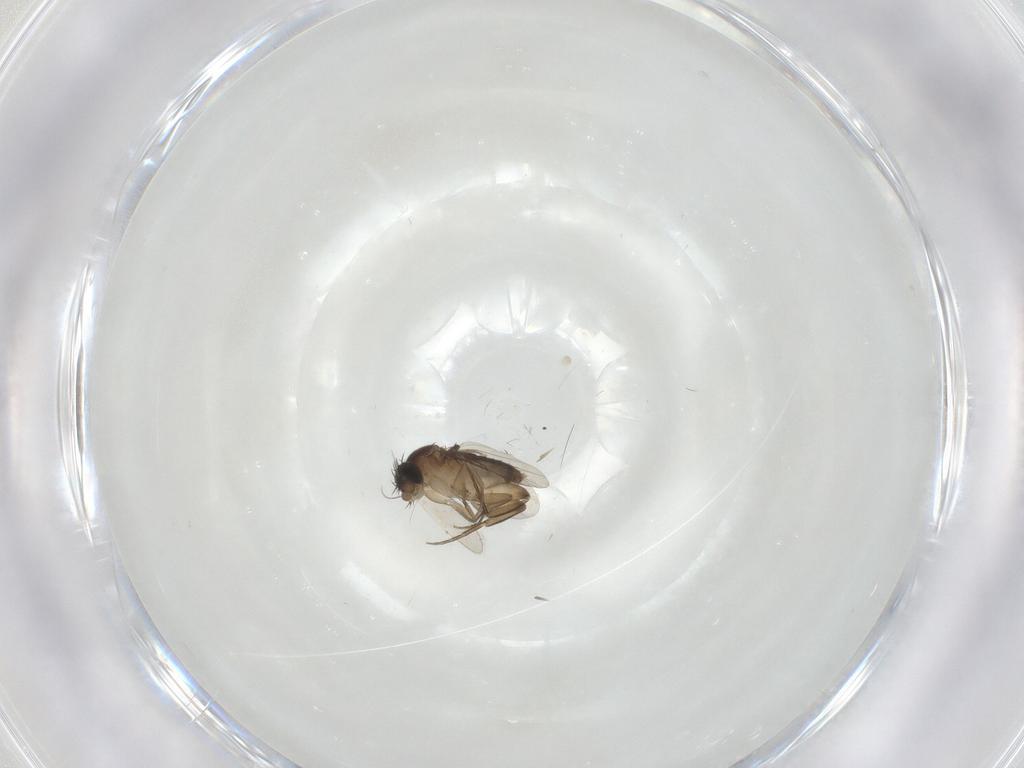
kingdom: Animalia
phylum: Arthropoda
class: Insecta
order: Diptera
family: Phoridae
